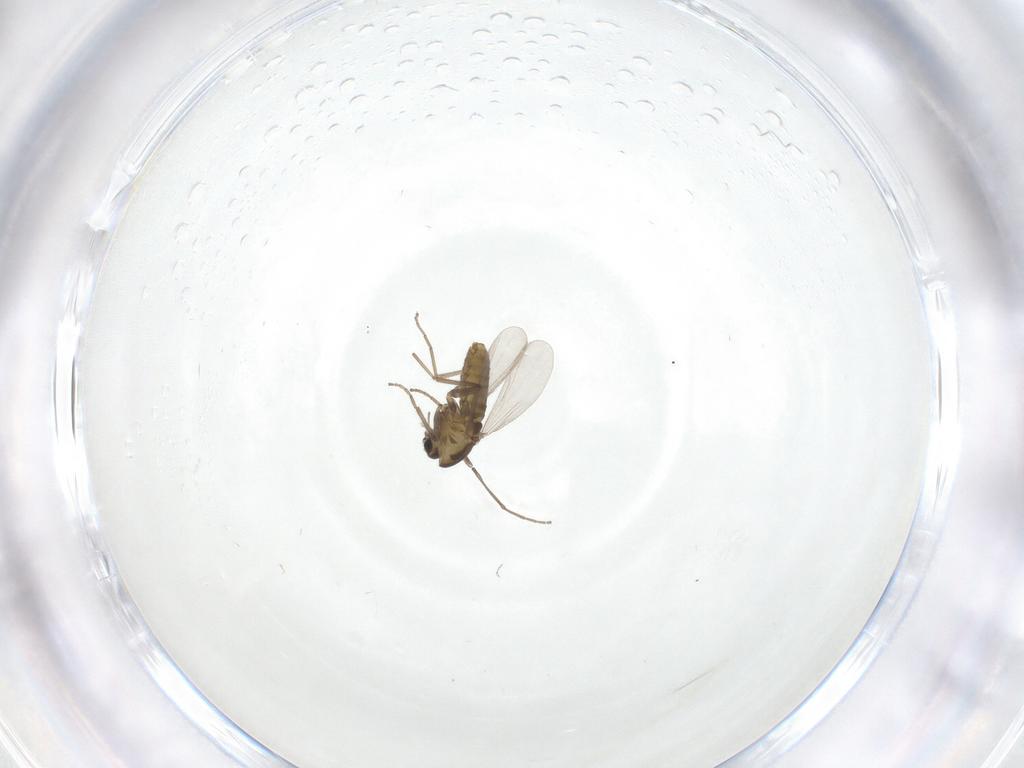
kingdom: Animalia
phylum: Arthropoda
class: Insecta
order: Diptera
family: Chironomidae
